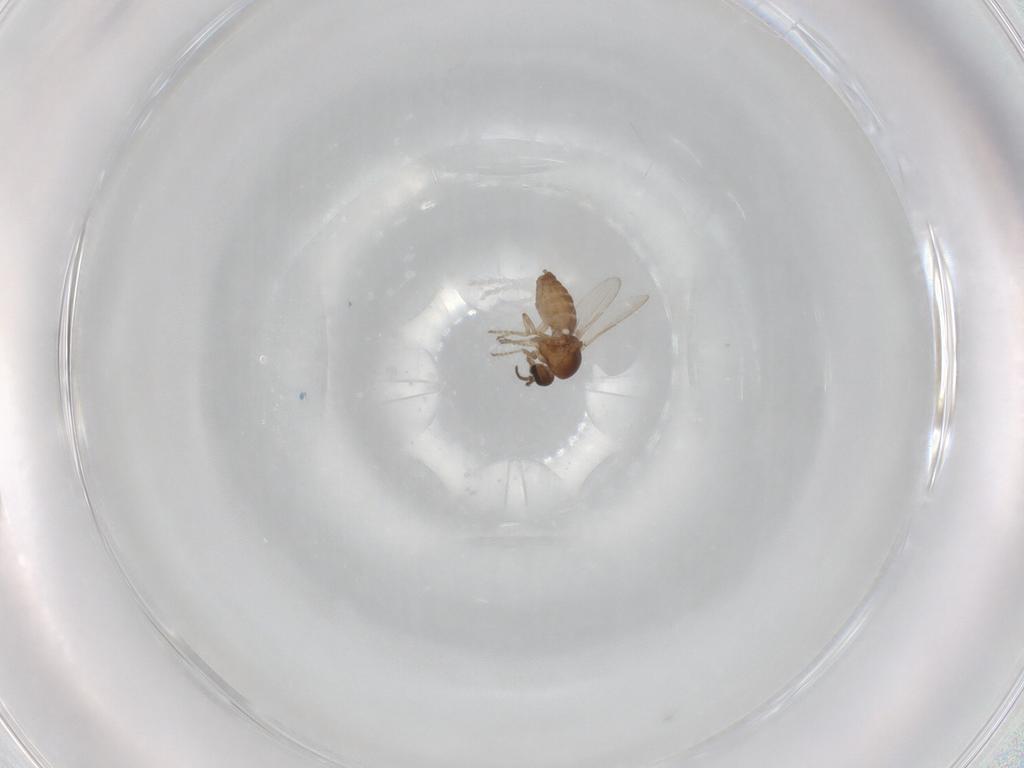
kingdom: Animalia
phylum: Arthropoda
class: Insecta
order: Diptera
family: Ceratopogonidae
